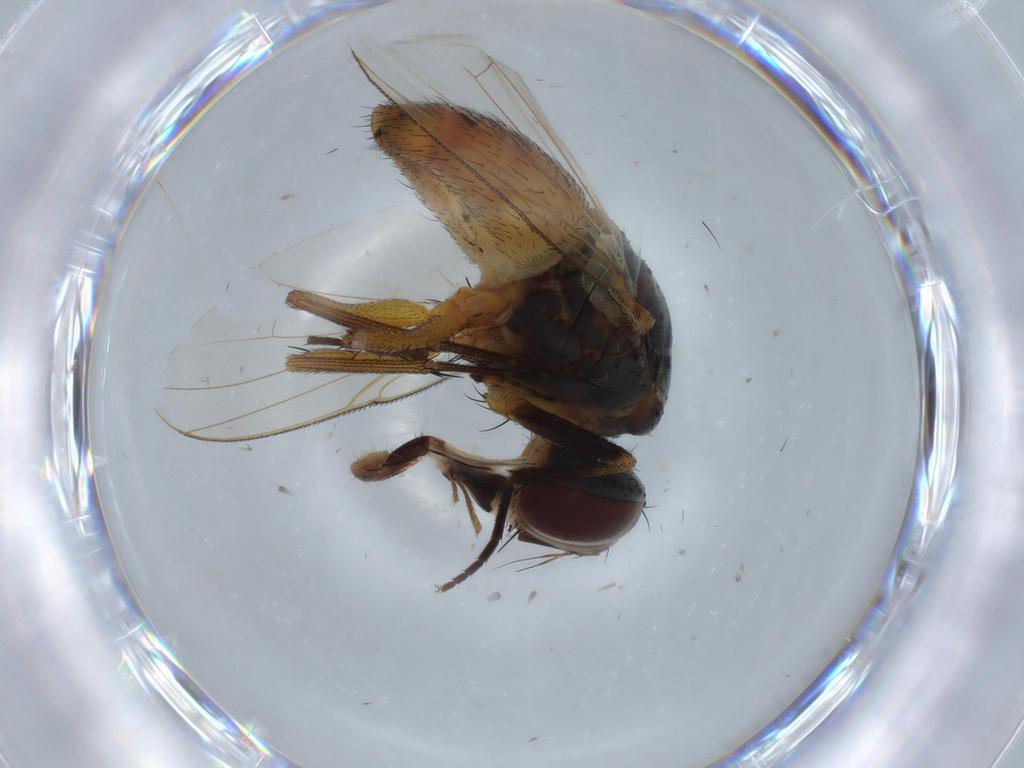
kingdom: Animalia
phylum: Arthropoda
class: Insecta
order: Diptera
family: Muscidae
